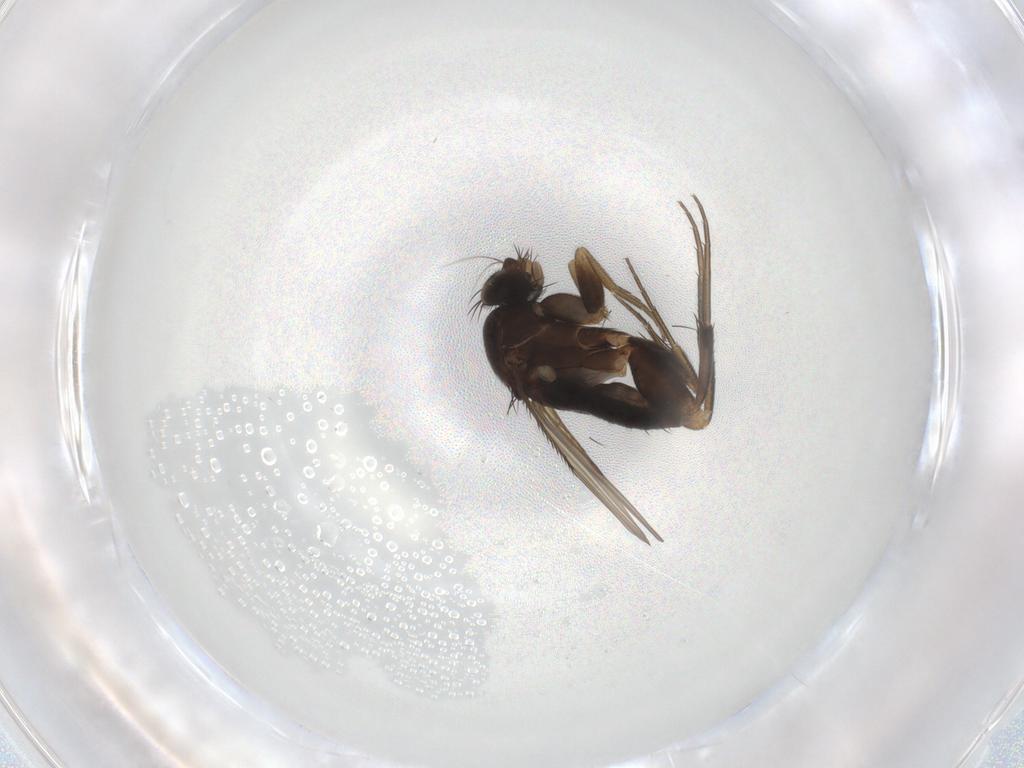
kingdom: Animalia
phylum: Arthropoda
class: Insecta
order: Diptera
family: Phoridae
